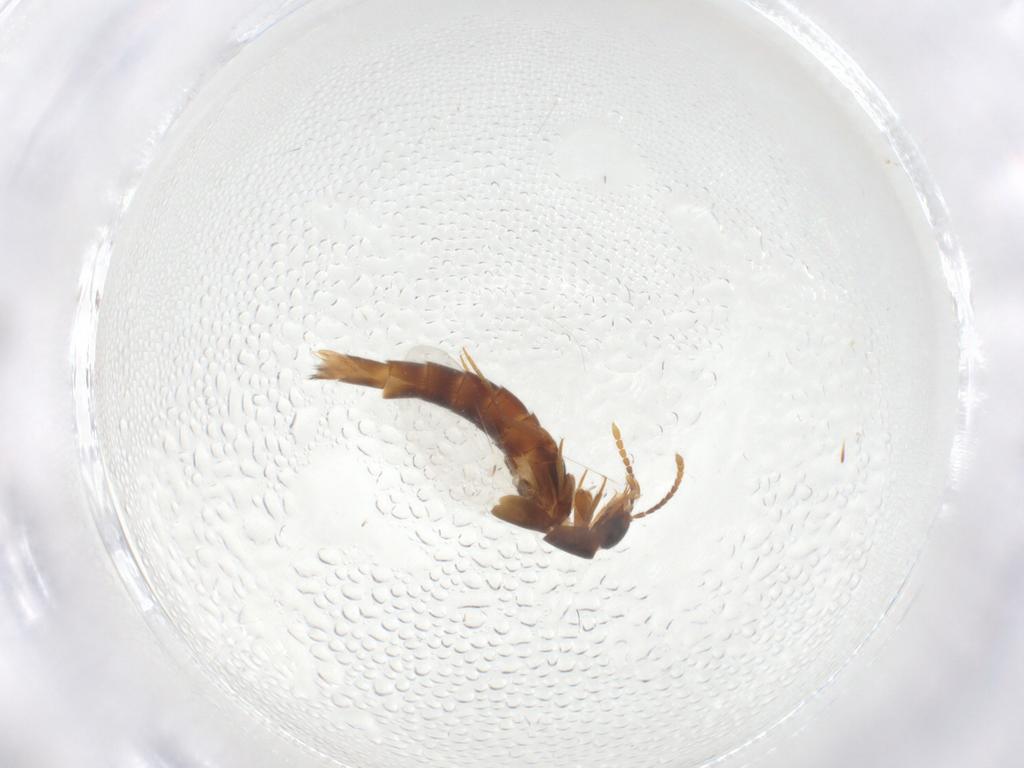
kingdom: Animalia
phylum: Arthropoda
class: Insecta
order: Coleoptera
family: Staphylinidae
